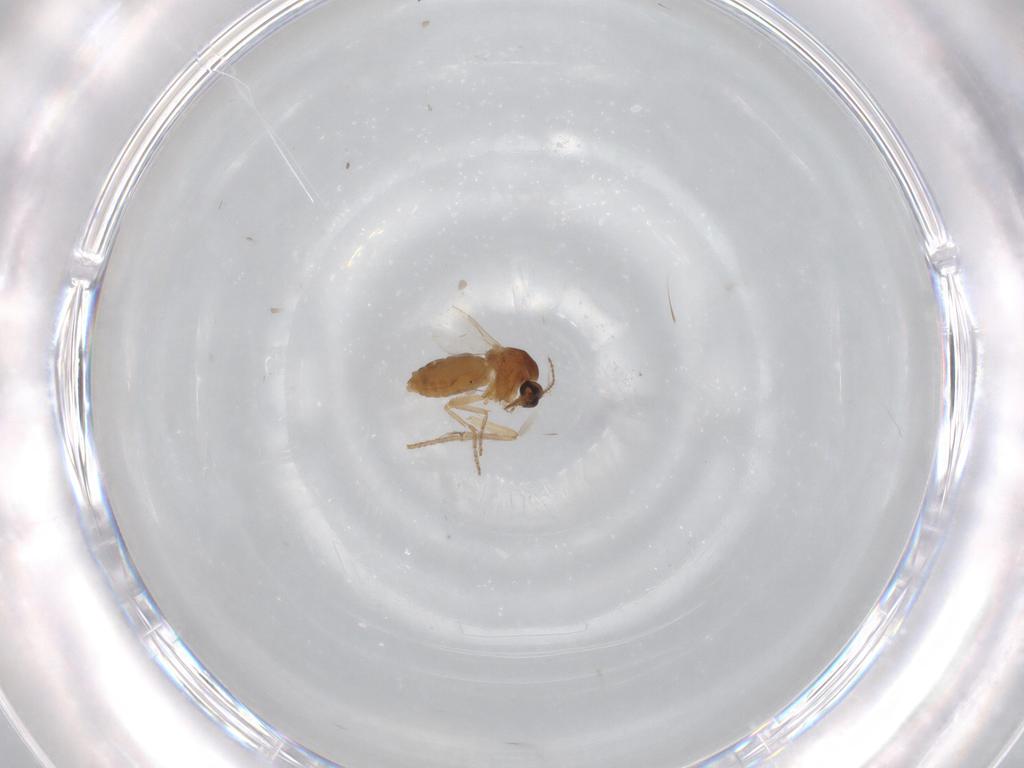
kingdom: Animalia
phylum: Arthropoda
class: Insecta
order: Diptera
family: Ceratopogonidae
